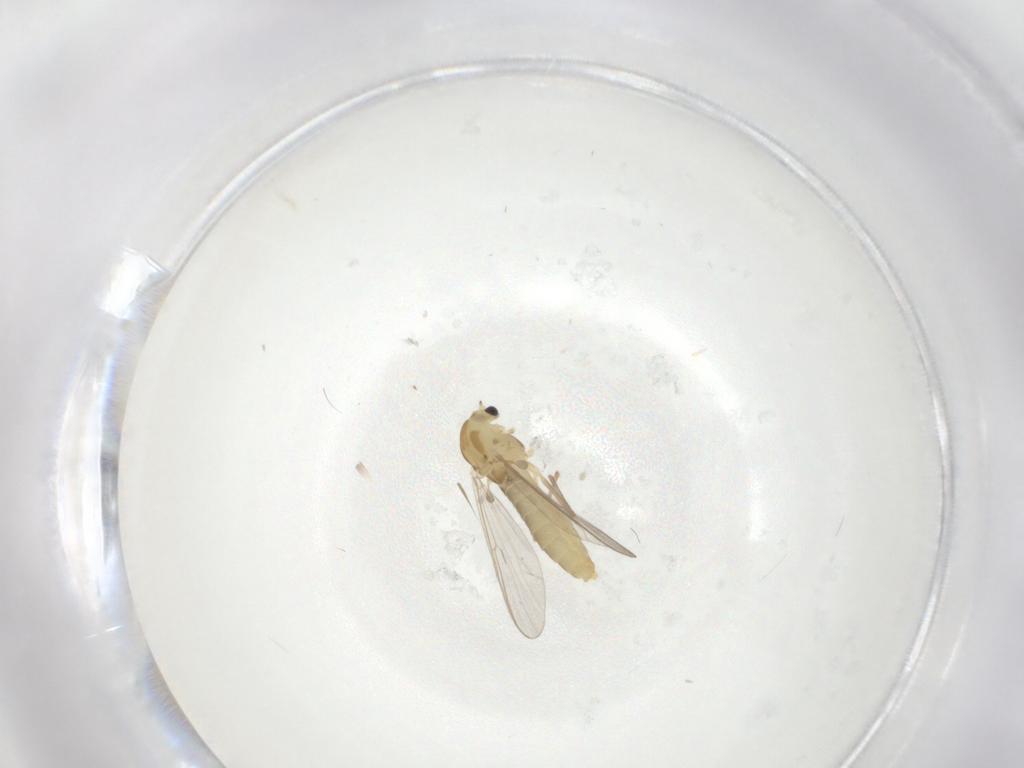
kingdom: Animalia
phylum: Arthropoda
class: Insecta
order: Diptera
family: Chironomidae
